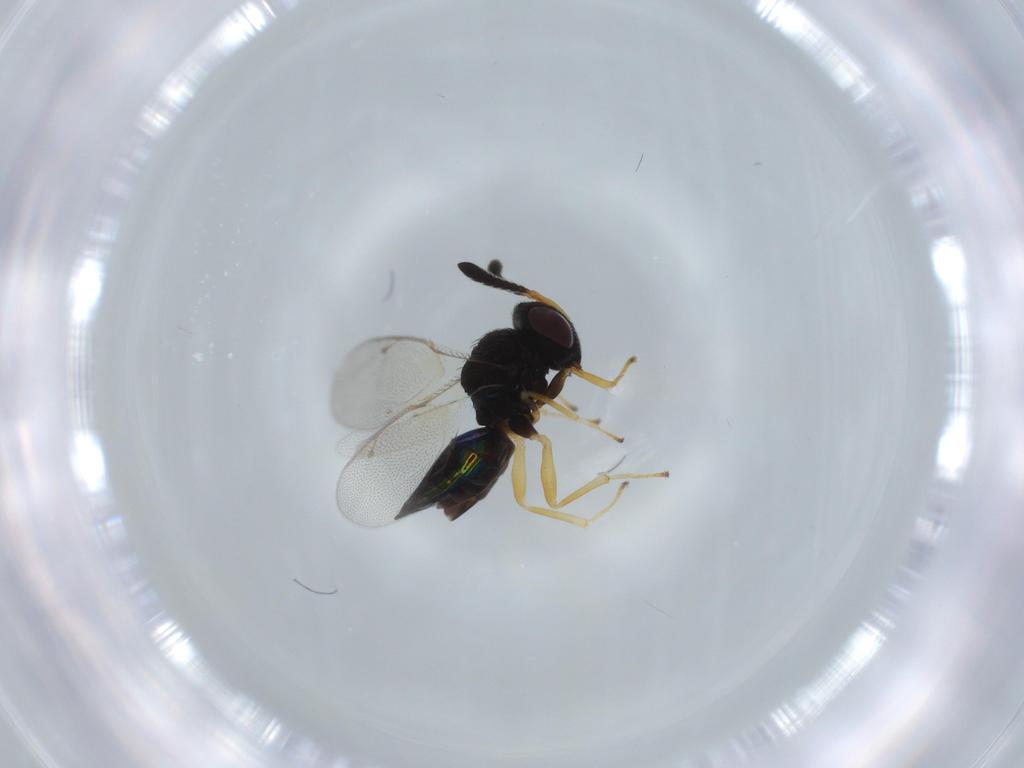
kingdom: Animalia
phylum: Arthropoda
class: Insecta
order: Hymenoptera
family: Pteromalidae
